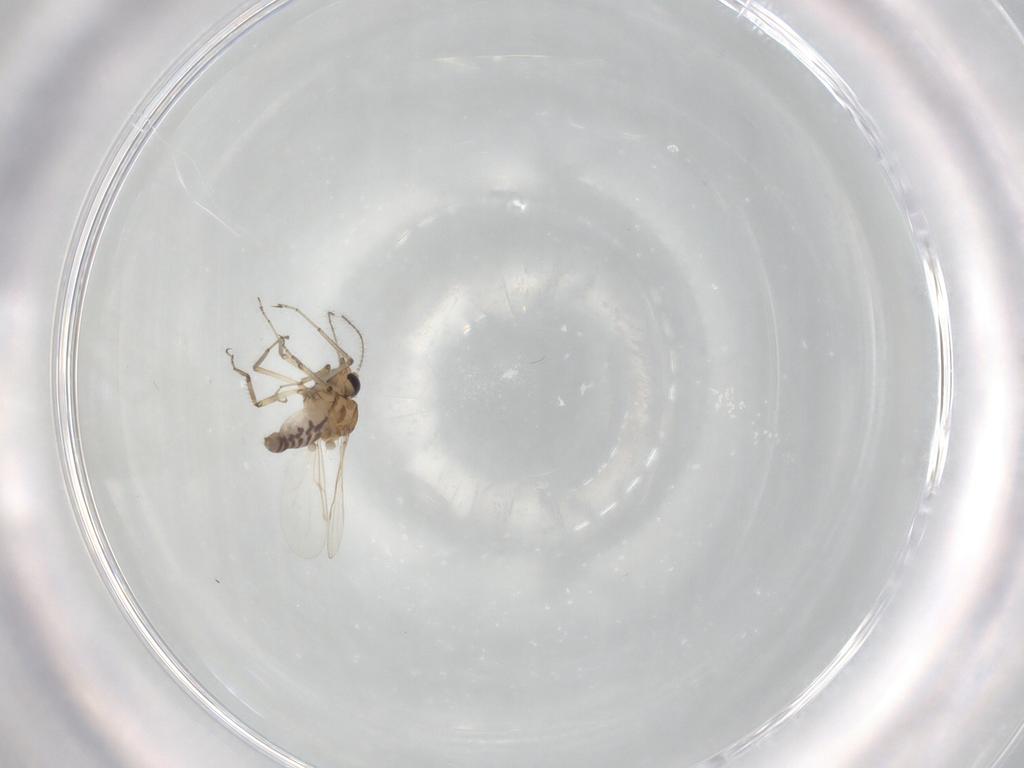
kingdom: Animalia
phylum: Arthropoda
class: Insecta
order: Diptera
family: Ceratopogonidae
